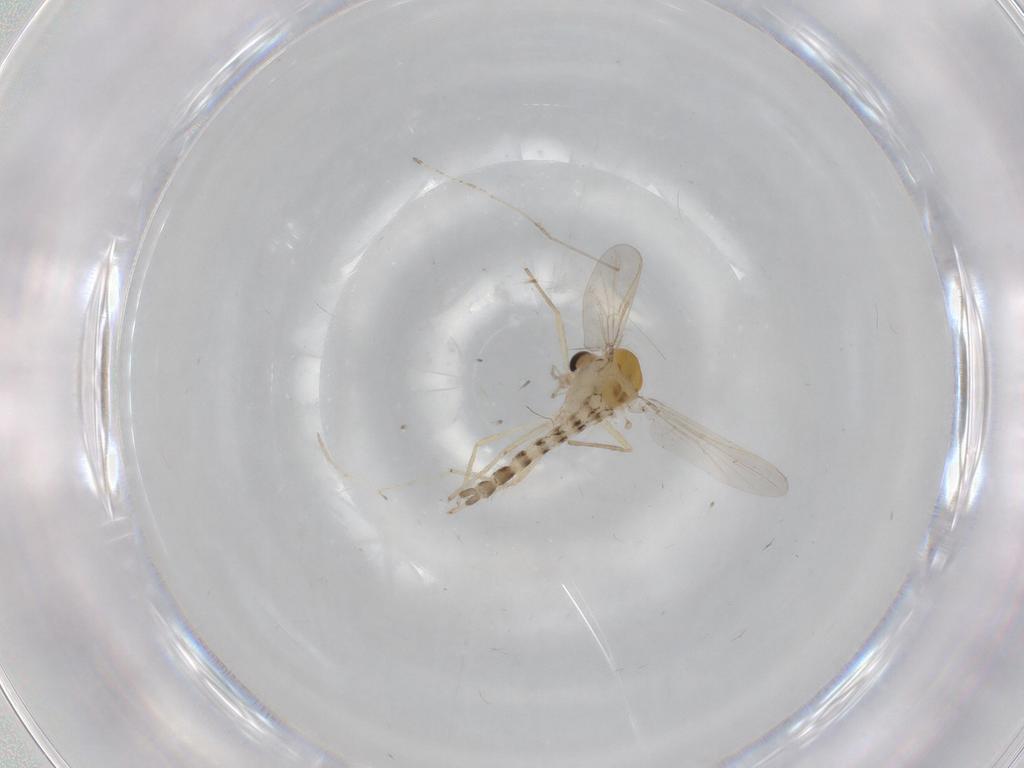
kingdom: Animalia
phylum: Arthropoda
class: Insecta
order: Diptera
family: Chironomidae
